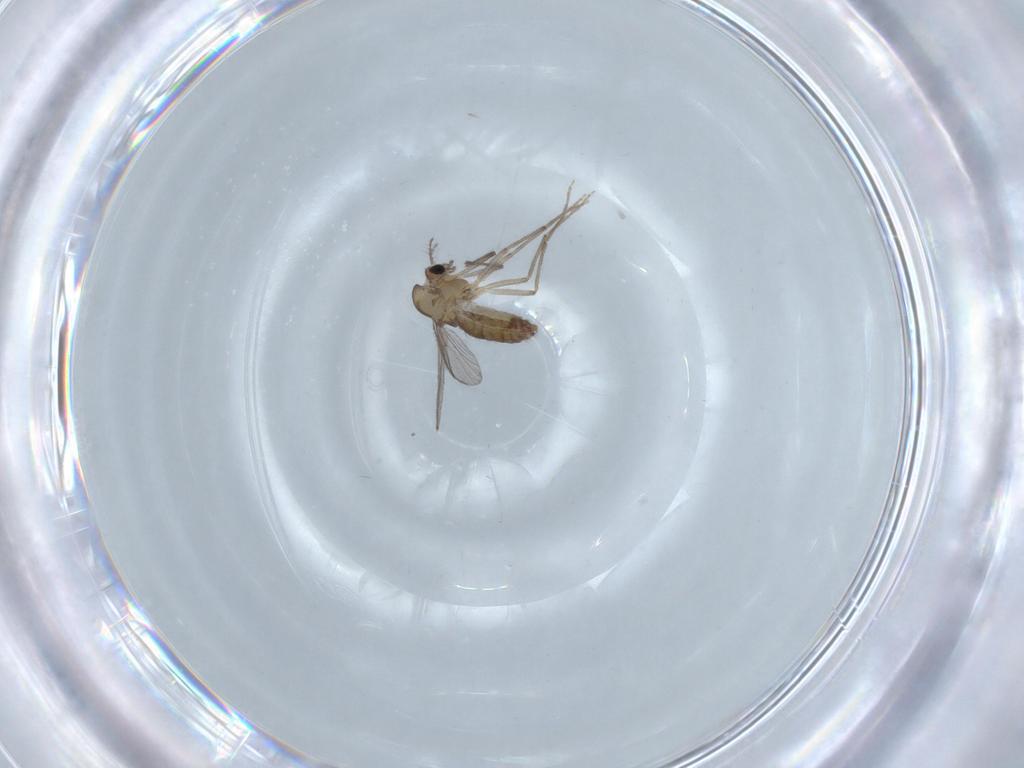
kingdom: Animalia
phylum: Arthropoda
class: Insecta
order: Diptera
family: Chironomidae
